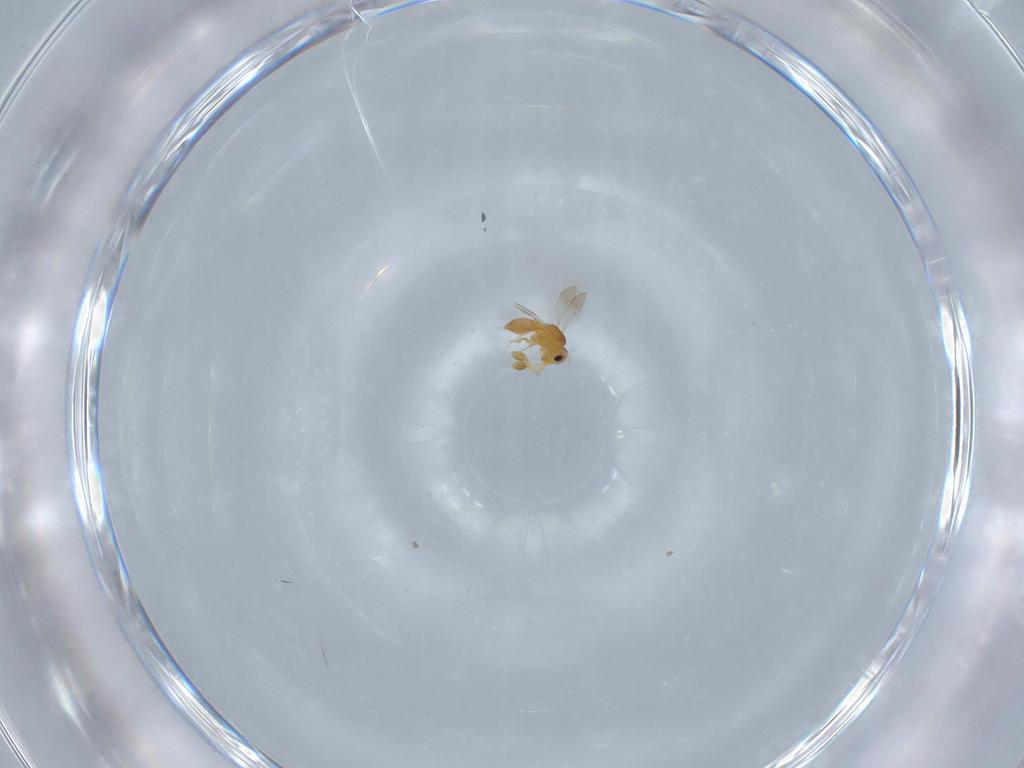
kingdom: Animalia
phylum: Arthropoda
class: Insecta
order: Hymenoptera
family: Scelionidae
